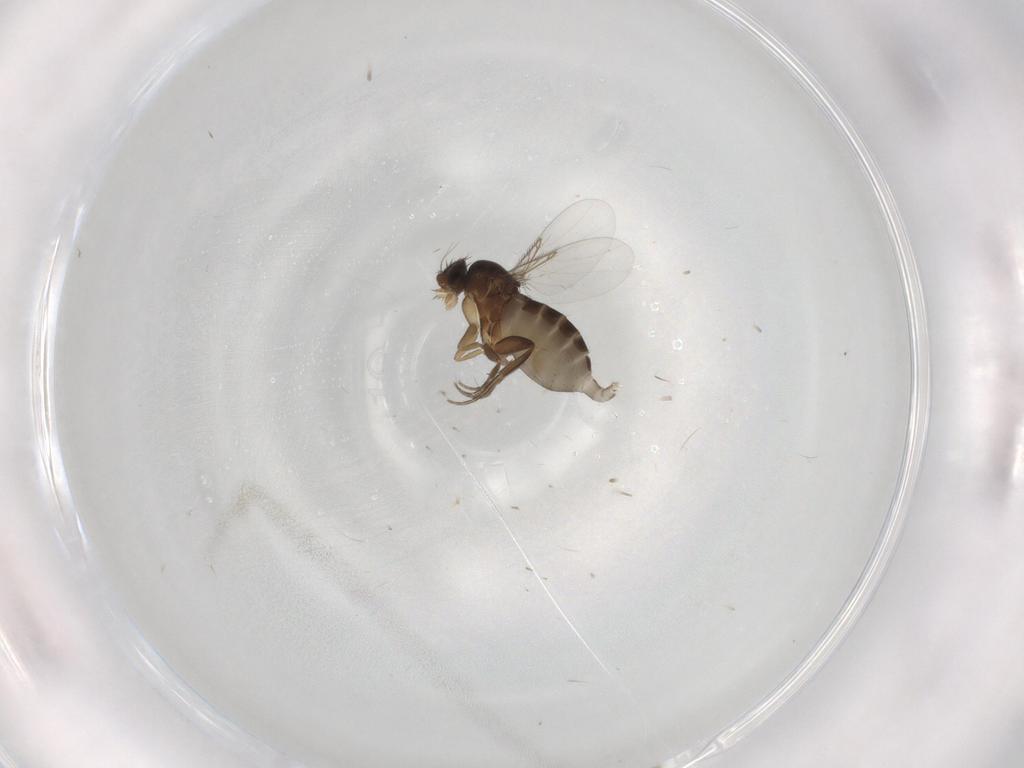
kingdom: Animalia
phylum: Arthropoda
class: Insecta
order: Diptera
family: Phoridae
